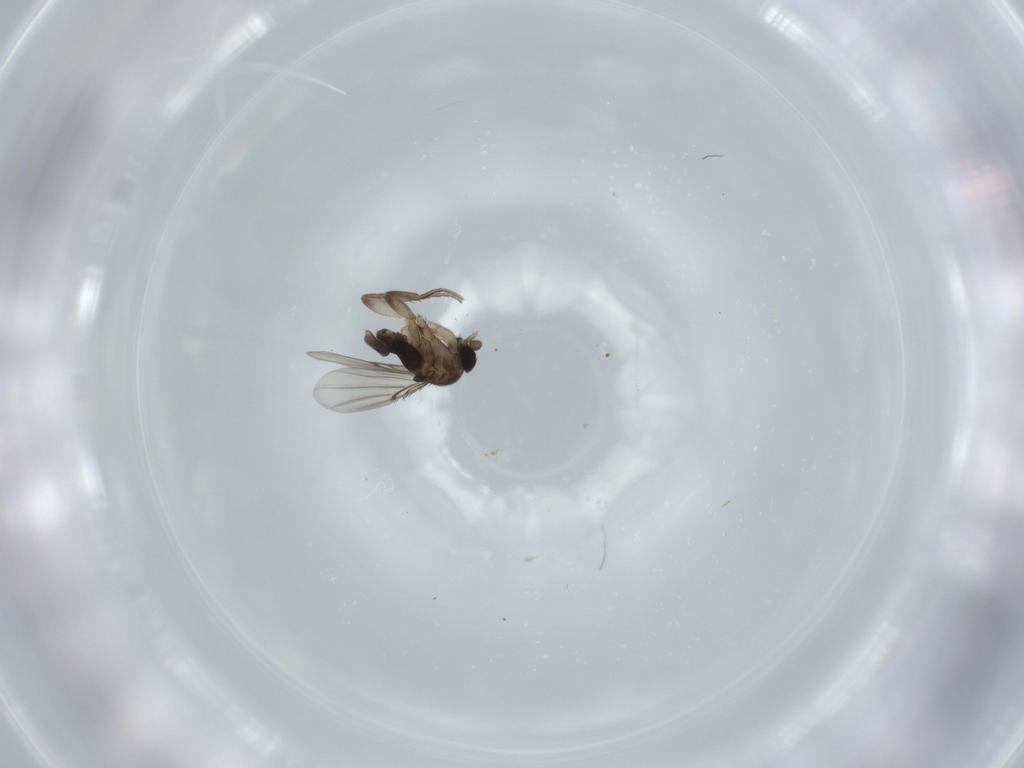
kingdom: Animalia
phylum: Arthropoda
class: Insecta
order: Diptera
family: Phoridae
